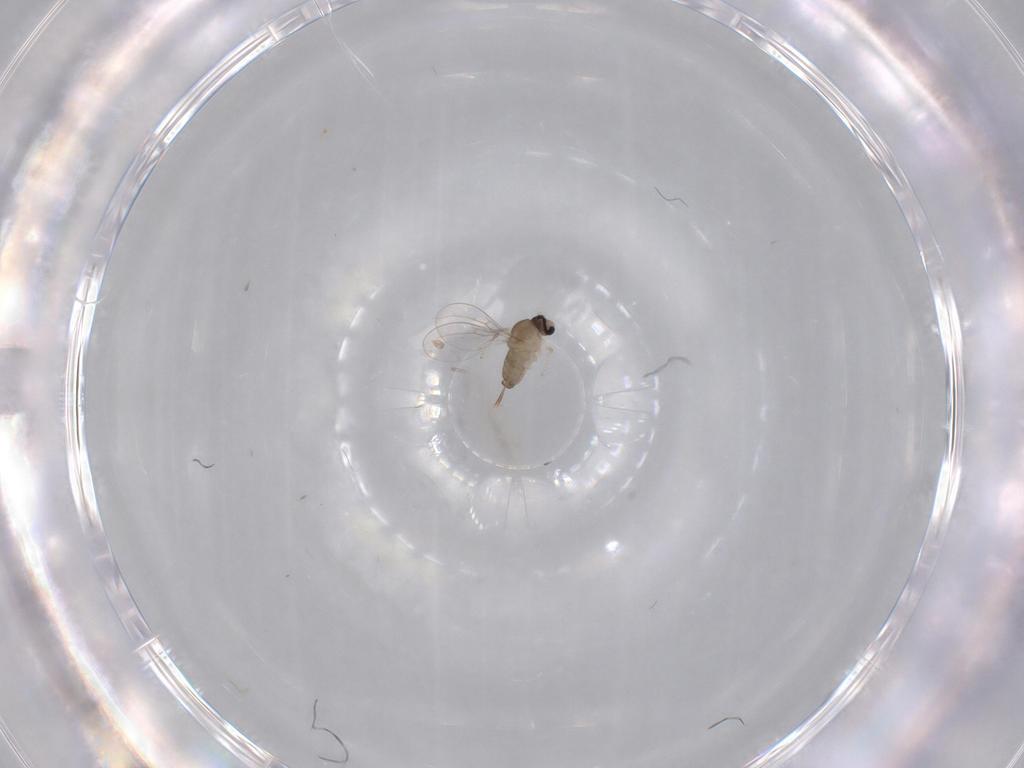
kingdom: Animalia
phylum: Arthropoda
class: Insecta
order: Diptera
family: Cecidomyiidae
